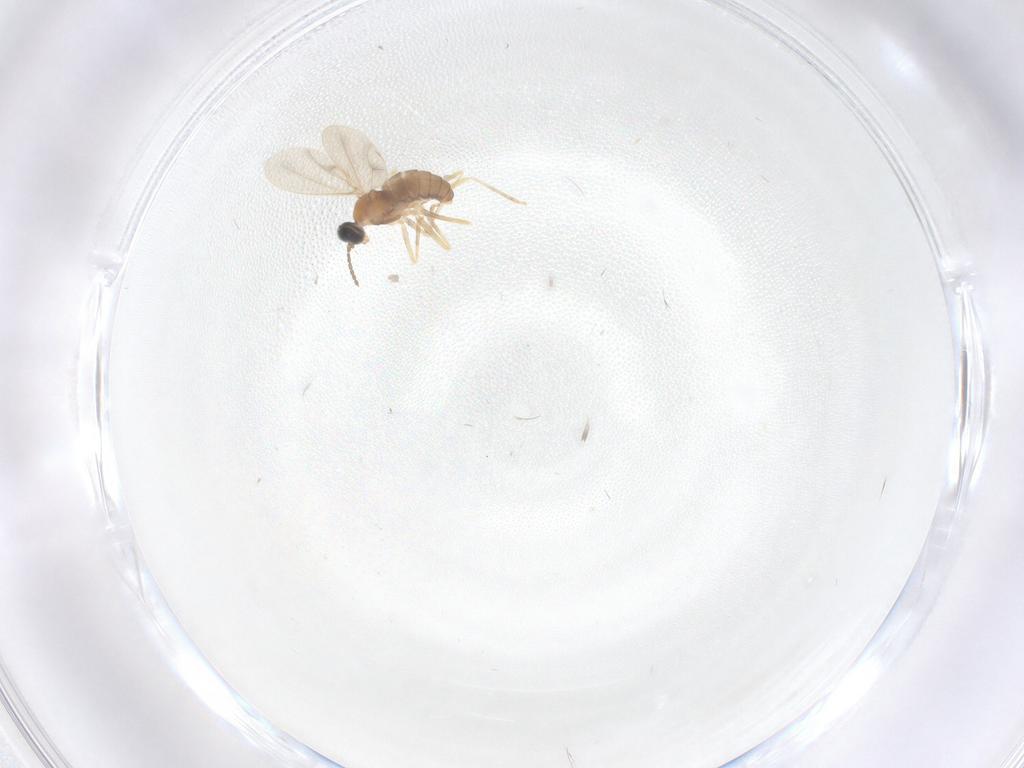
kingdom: Animalia
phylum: Arthropoda
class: Insecta
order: Diptera
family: Cecidomyiidae
